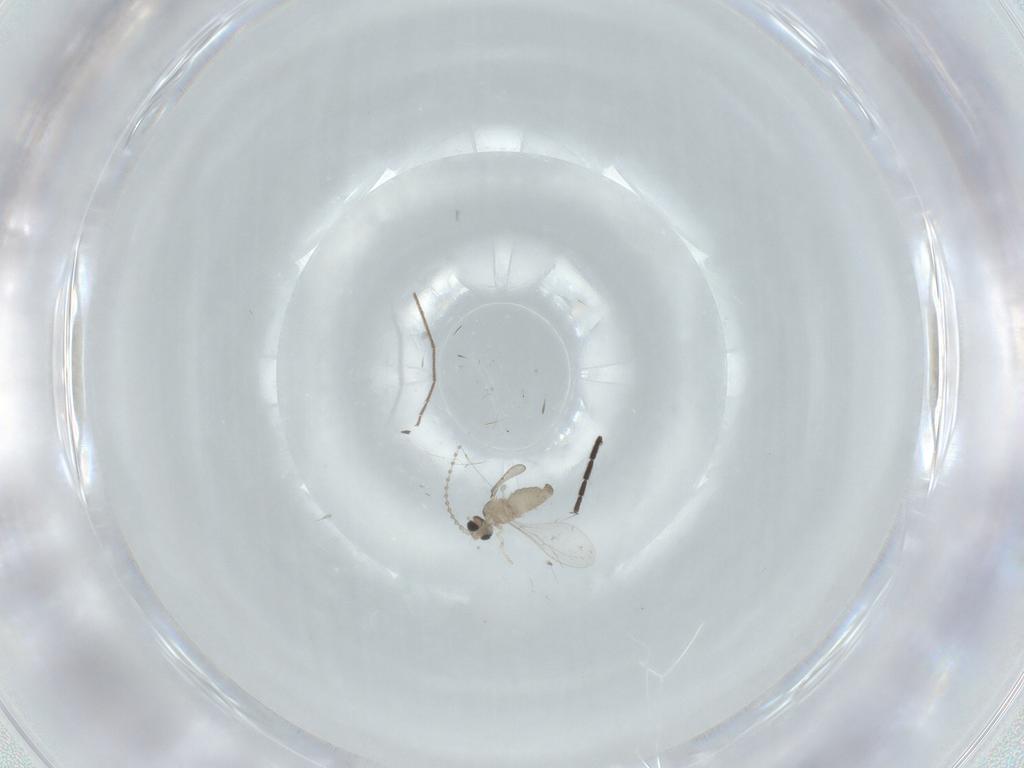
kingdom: Animalia
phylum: Arthropoda
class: Insecta
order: Diptera
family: Cecidomyiidae
